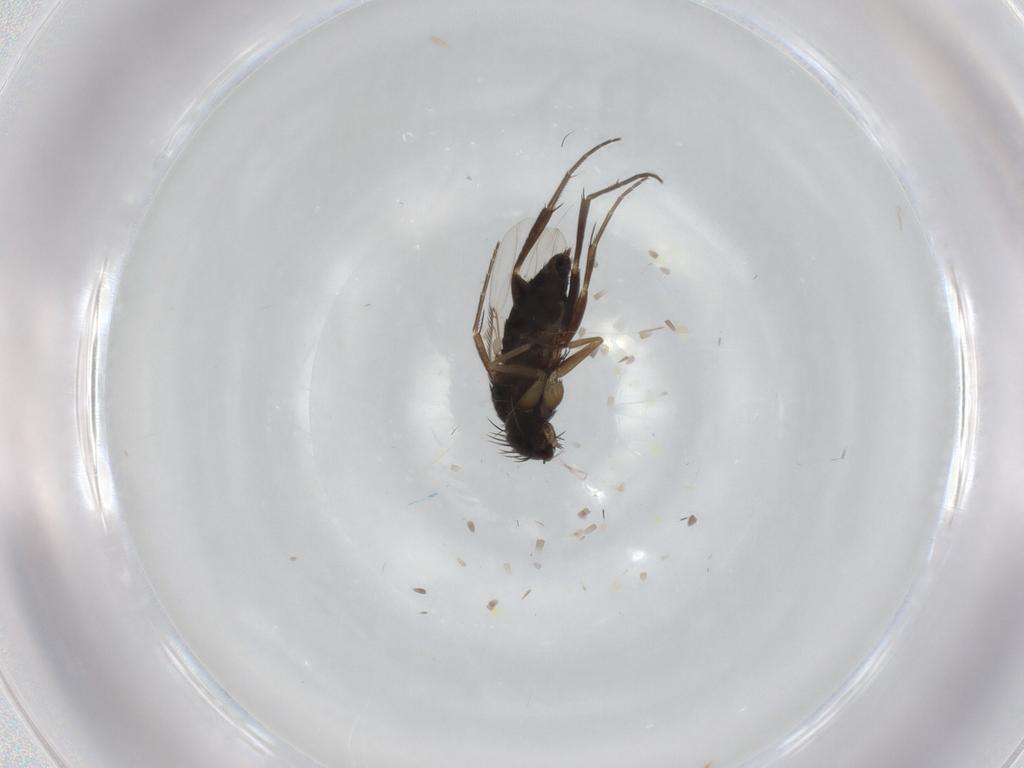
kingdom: Animalia
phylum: Arthropoda
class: Insecta
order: Diptera
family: Phoridae
